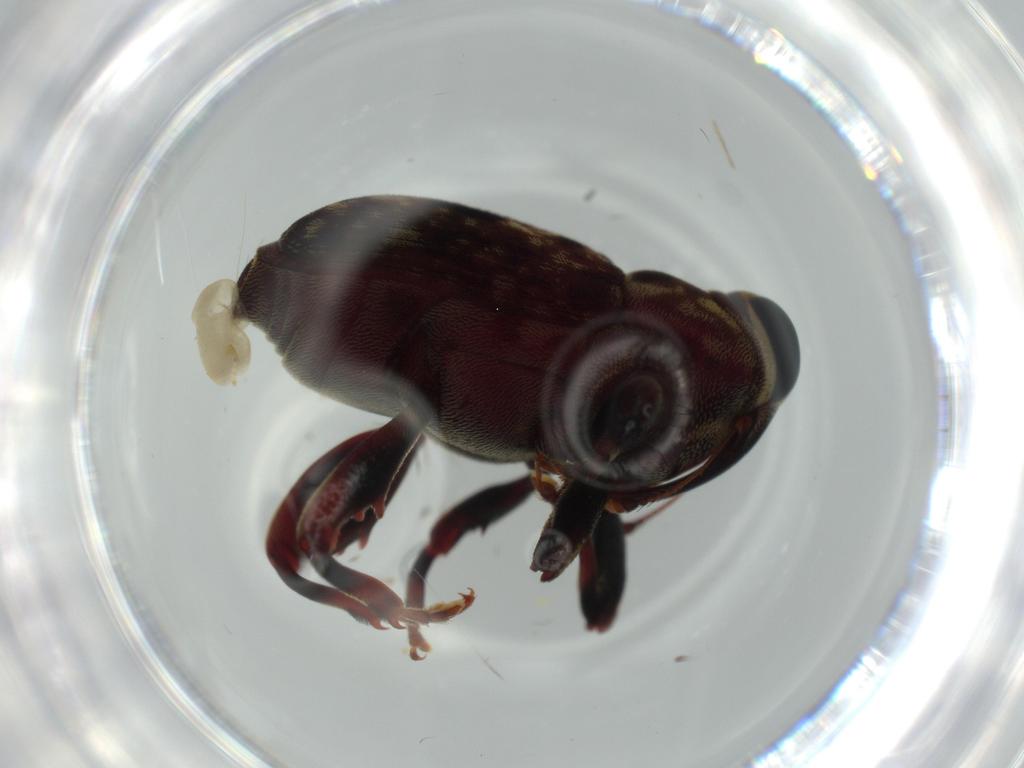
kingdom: Animalia
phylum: Arthropoda
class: Insecta
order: Coleoptera
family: Curculionidae
